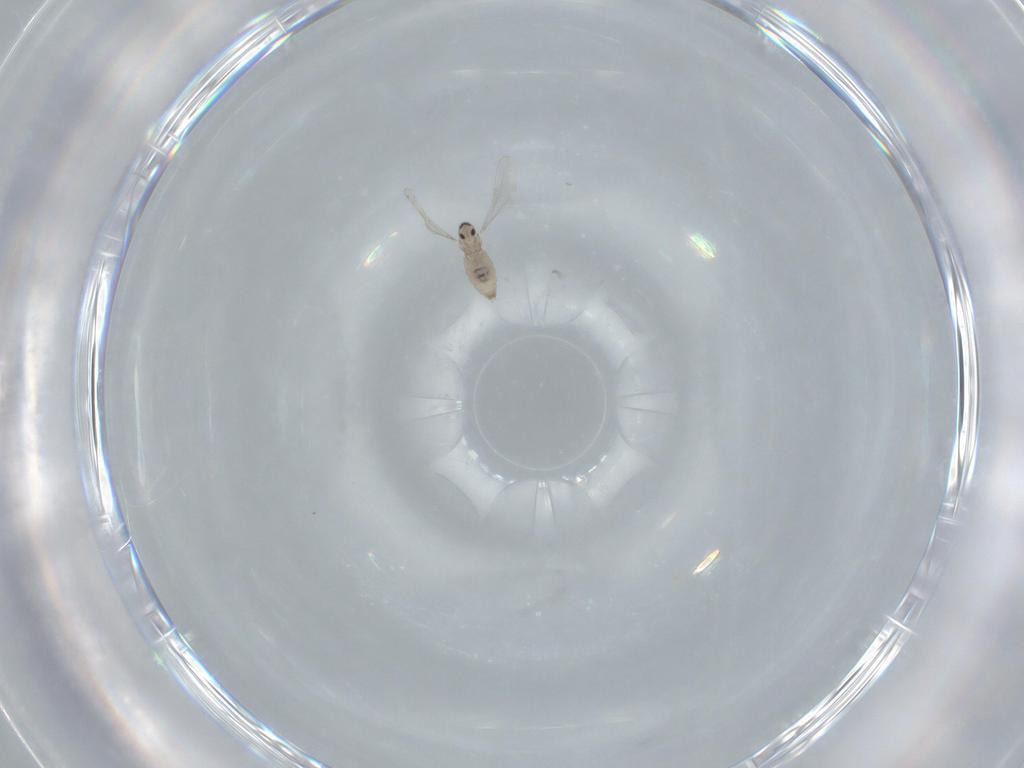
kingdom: Animalia
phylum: Arthropoda
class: Insecta
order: Diptera
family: Cecidomyiidae
